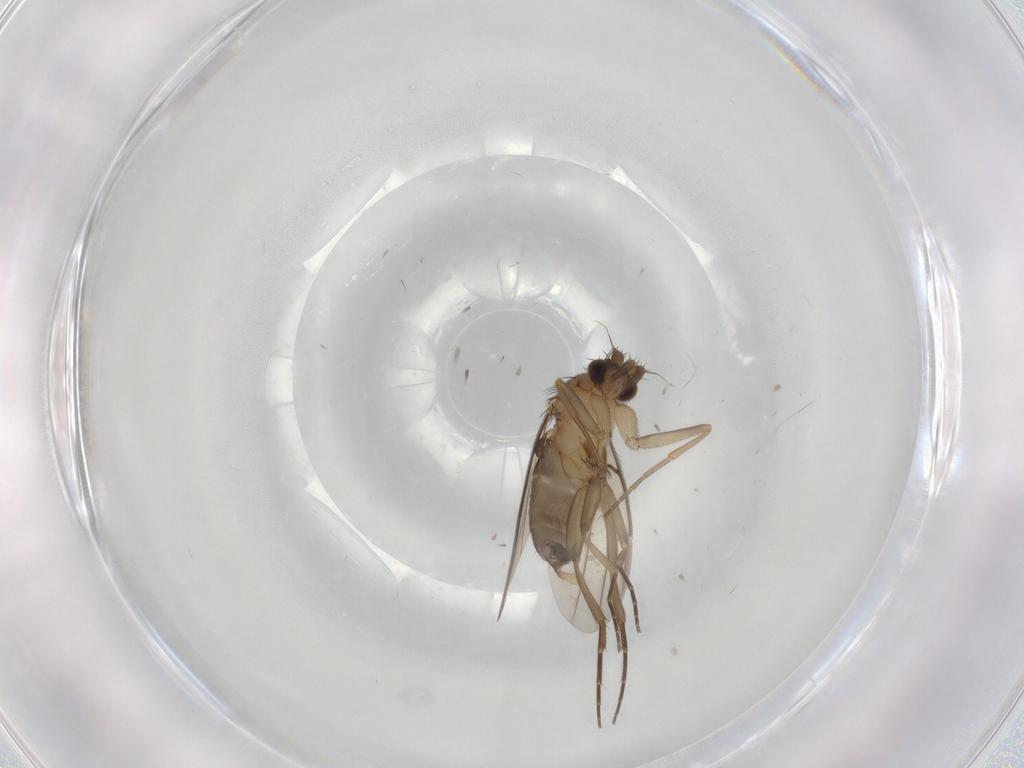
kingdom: Animalia
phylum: Arthropoda
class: Insecta
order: Diptera
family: Phoridae
